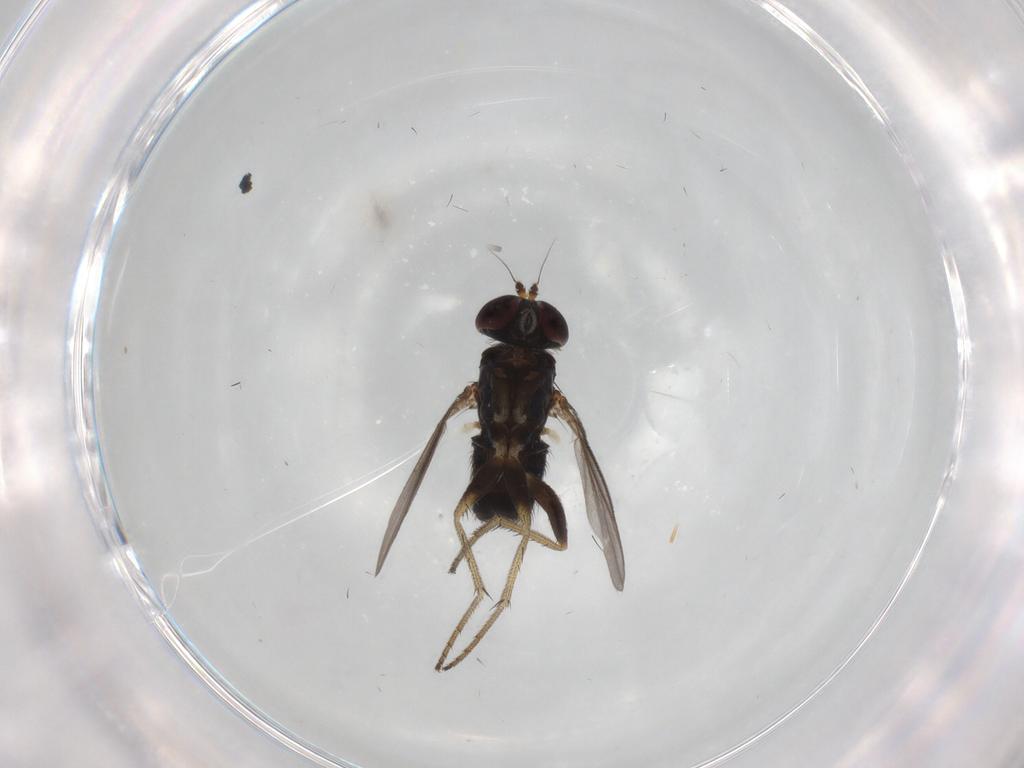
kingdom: Animalia
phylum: Arthropoda
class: Insecta
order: Diptera
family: Dolichopodidae
